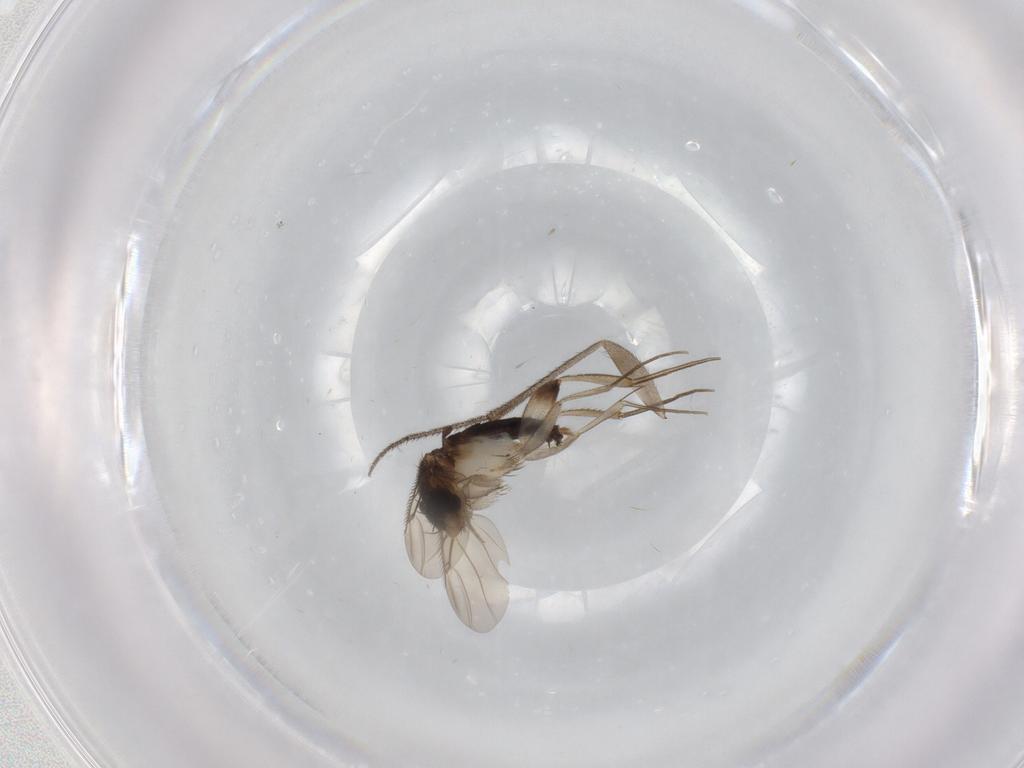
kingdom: Animalia
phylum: Arthropoda
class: Insecta
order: Diptera
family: Phoridae
